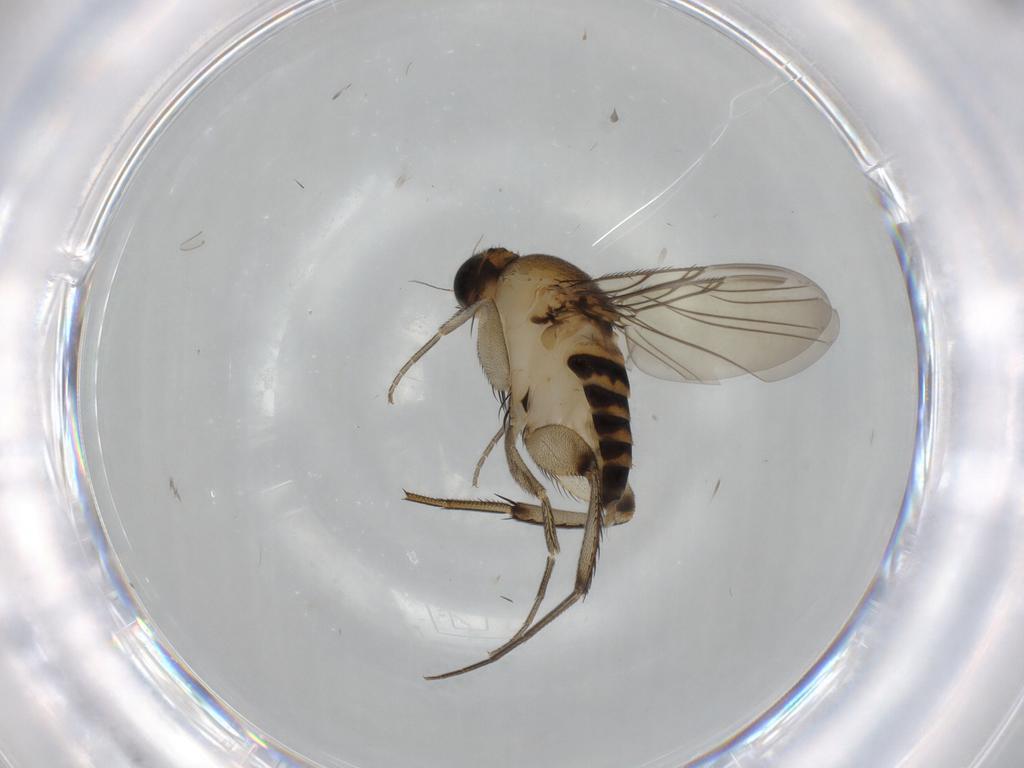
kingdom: Animalia
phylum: Arthropoda
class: Insecta
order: Diptera
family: Phoridae
